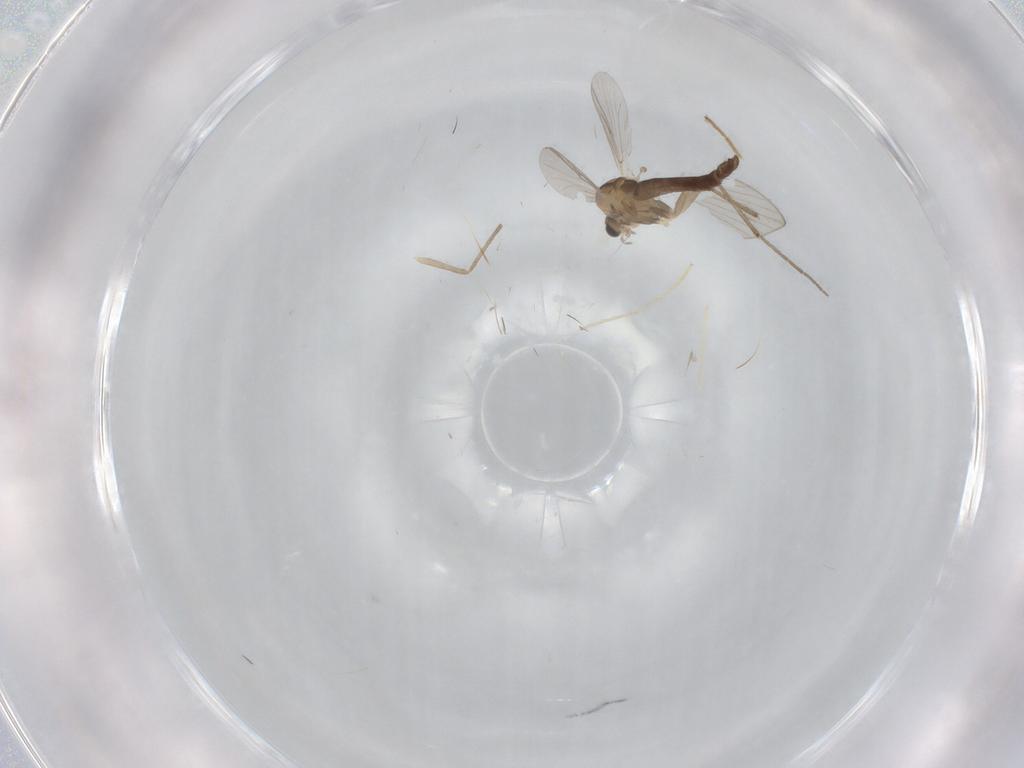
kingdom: Animalia
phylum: Arthropoda
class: Insecta
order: Diptera
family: Chironomidae
